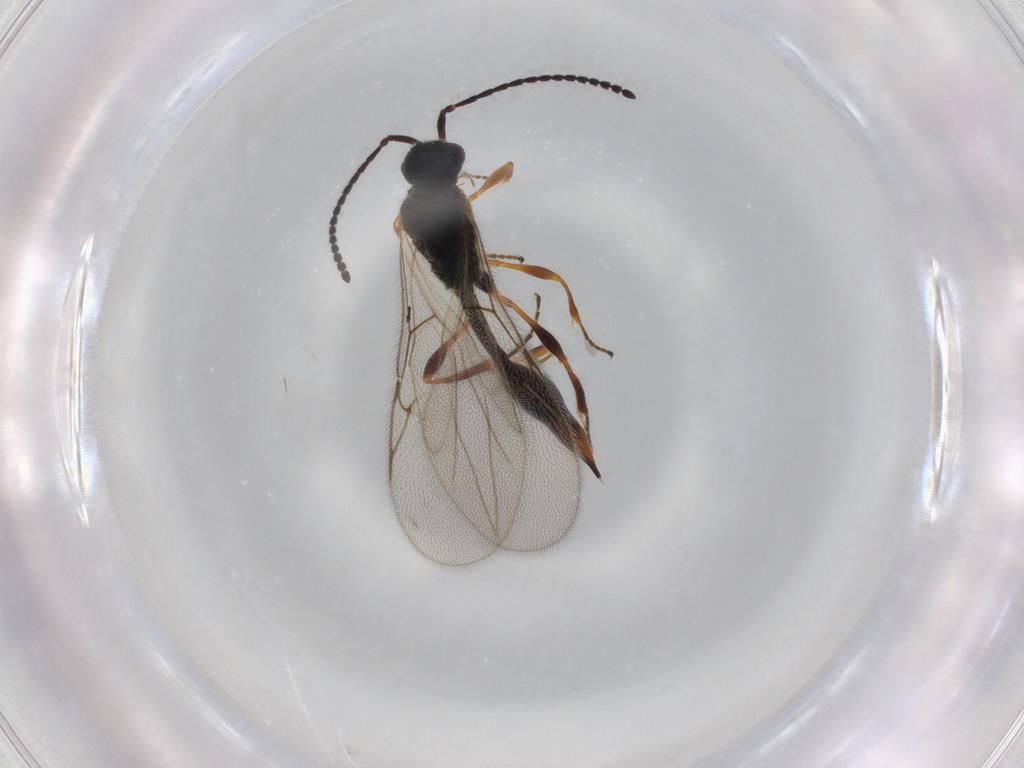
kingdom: Animalia
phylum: Arthropoda
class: Insecta
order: Hymenoptera
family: Diapriidae
